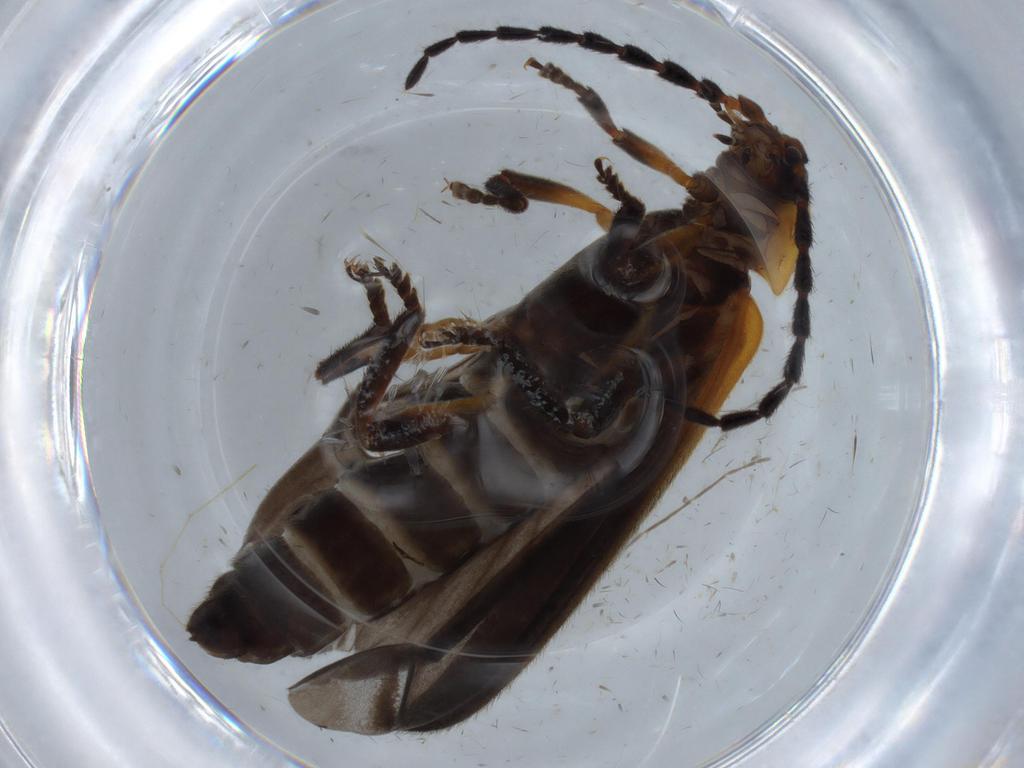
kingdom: Animalia
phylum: Arthropoda
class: Insecta
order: Coleoptera
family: Lycidae
